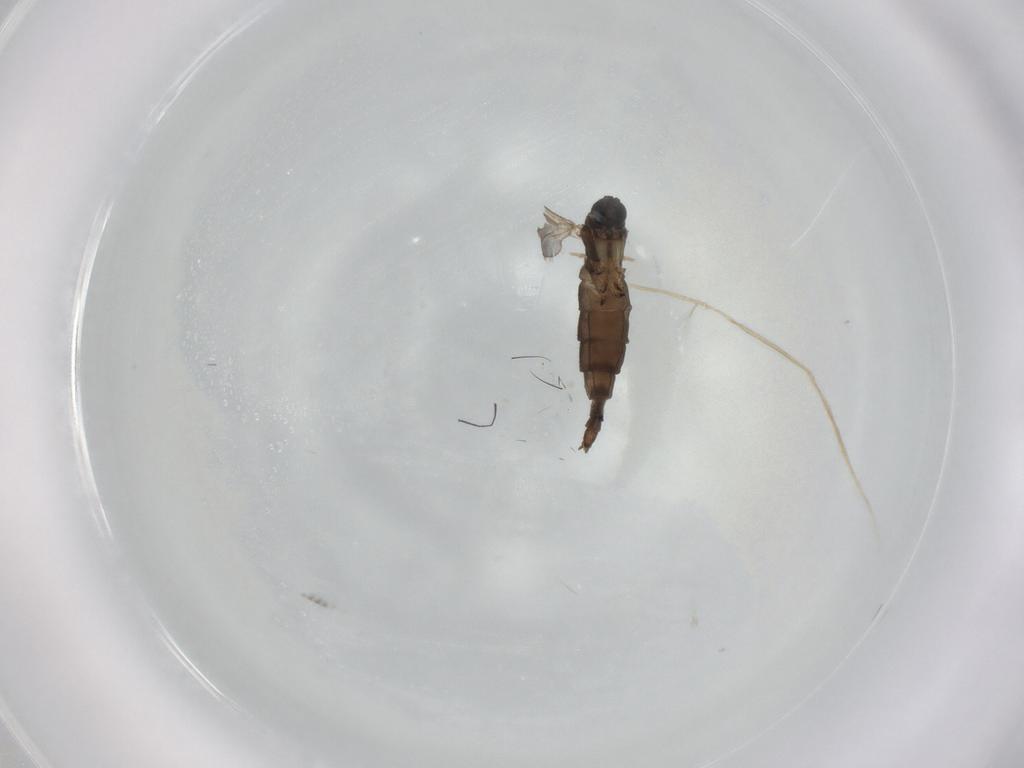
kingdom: Animalia
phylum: Arthropoda
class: Insecta
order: Diptera
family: Sciaridae
